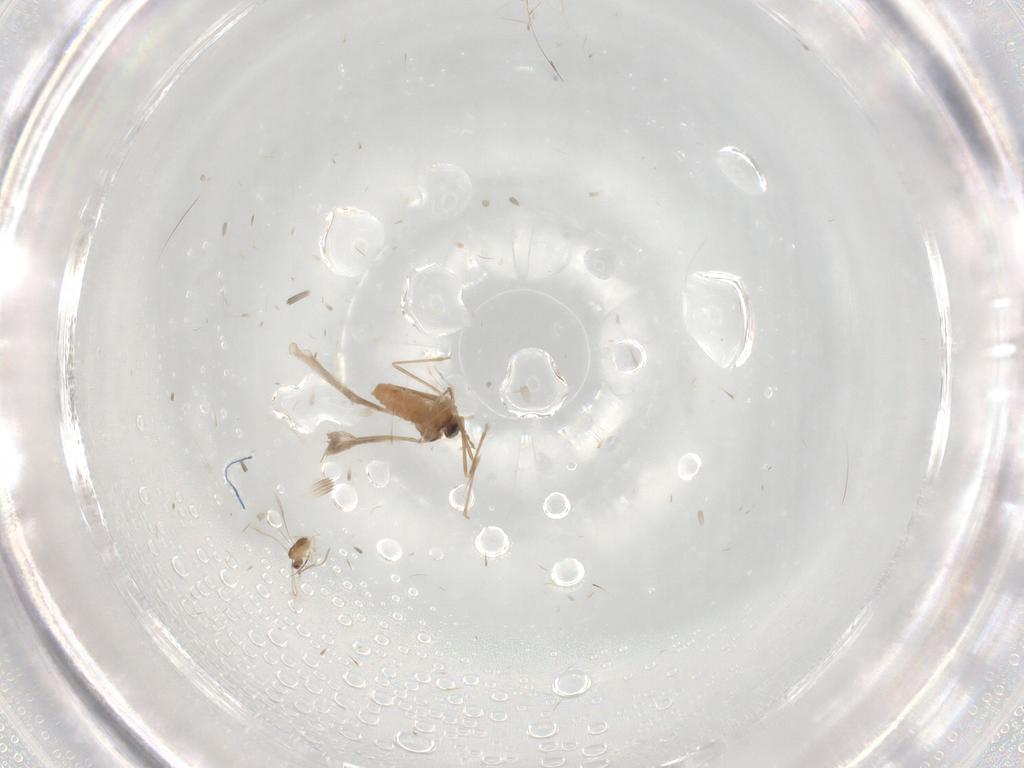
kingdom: Animalia
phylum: Arthropoda
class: Insecta
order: Diptera
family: Cecidomyiidae
